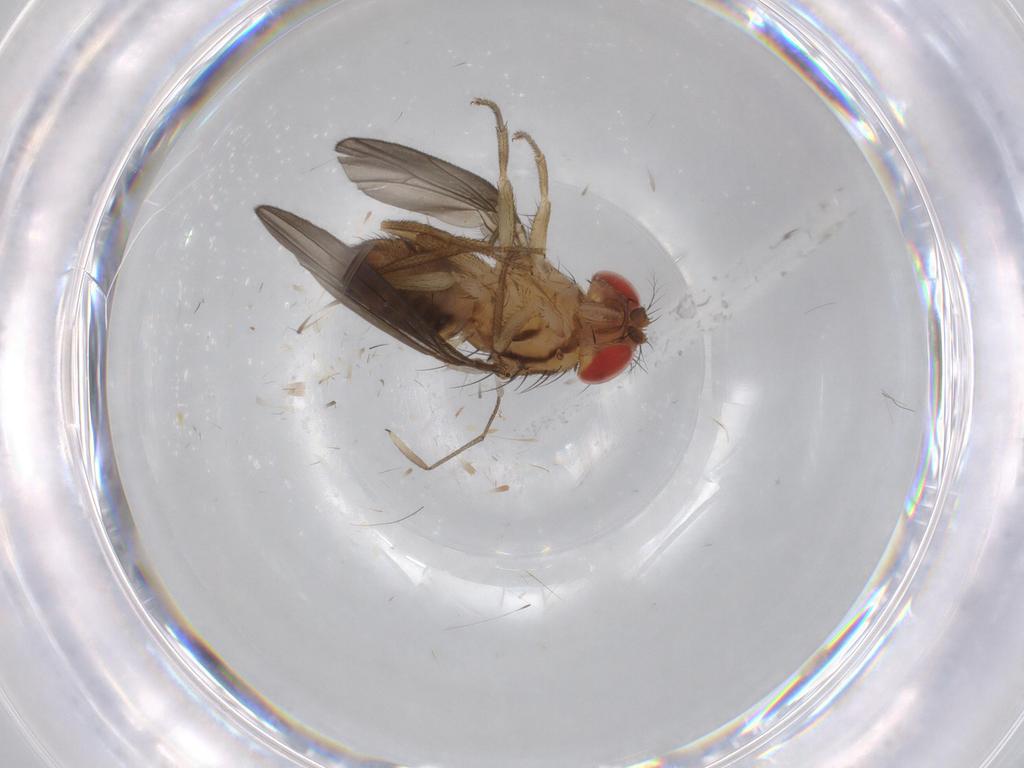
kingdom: Animalia
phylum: Arthropoda
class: Insecta
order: Diptera
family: Drosophilidae
